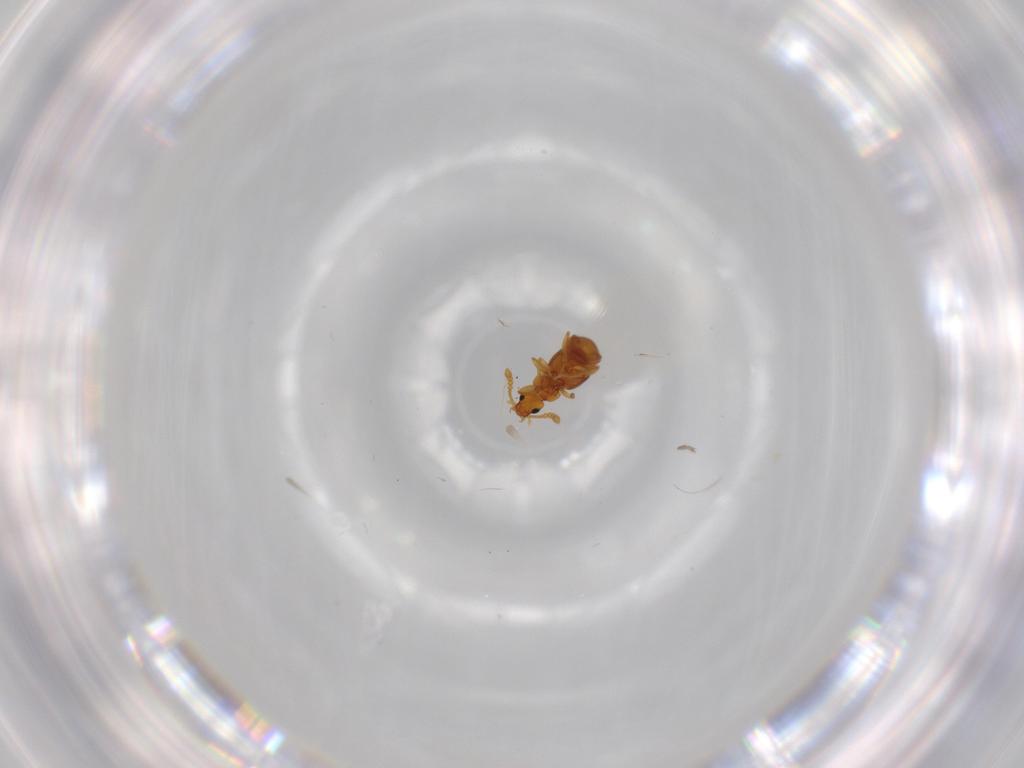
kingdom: Animalia
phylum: Arthropoda
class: Insecta
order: Coleoptera
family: Staphylinidae
